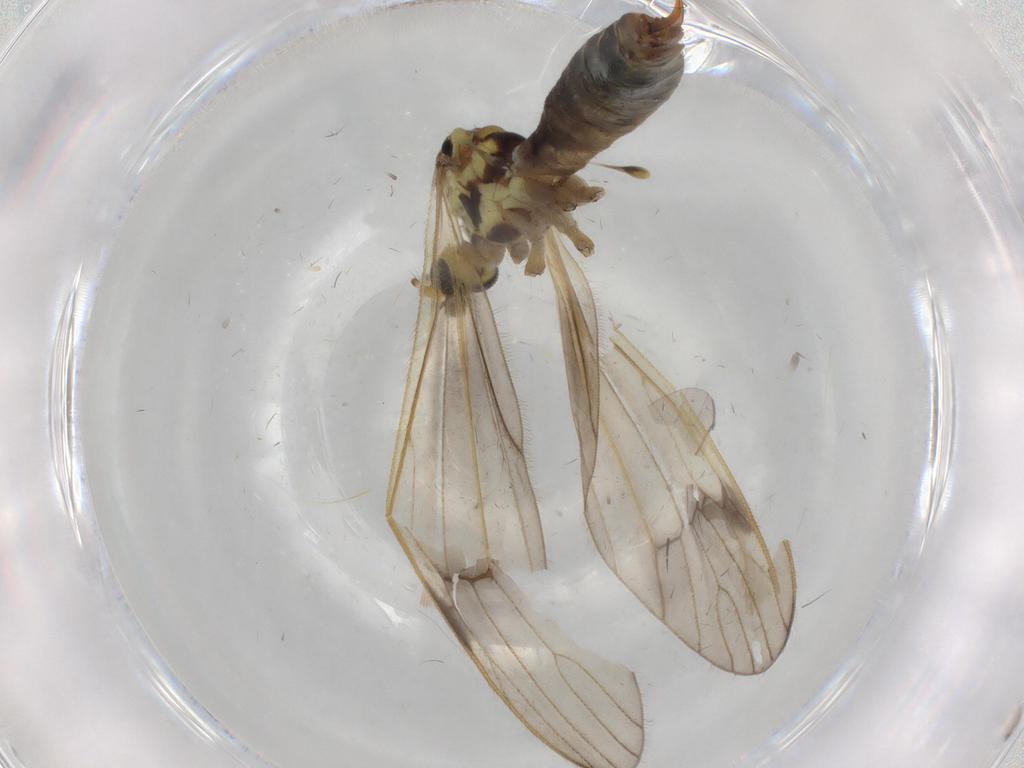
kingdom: Animalia
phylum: Arthropoda
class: Insecta
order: Diptera
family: Phoridae
